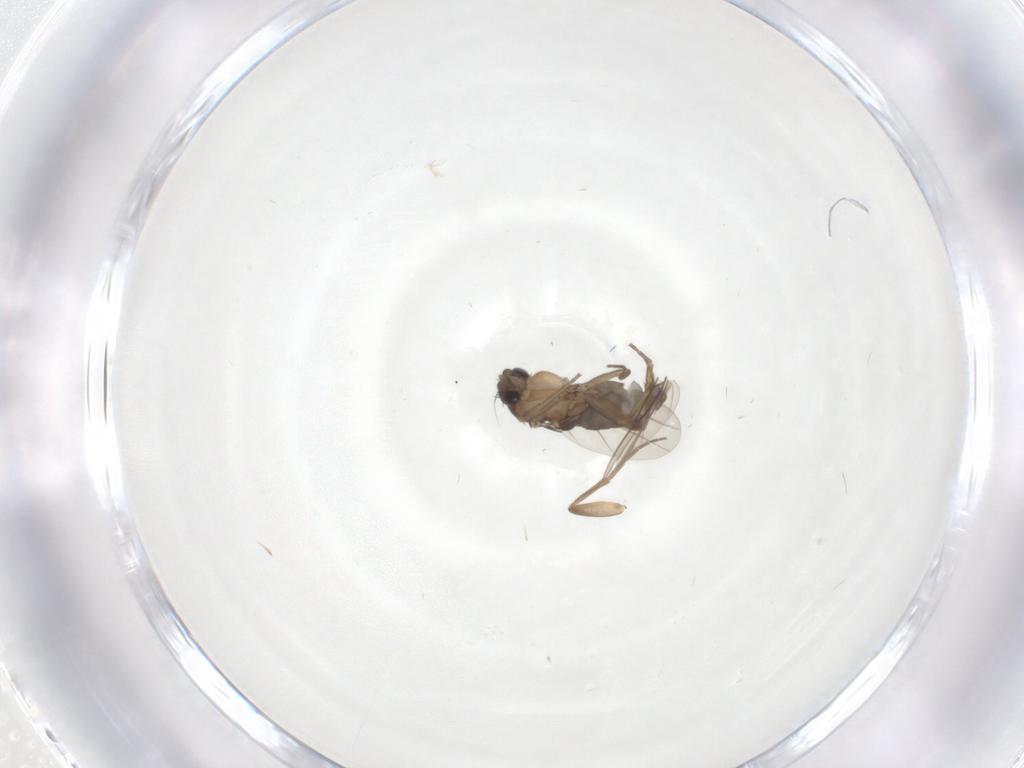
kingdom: Animalia
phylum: Arthropoda
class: Insecta
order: Diptera
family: Phoridae
